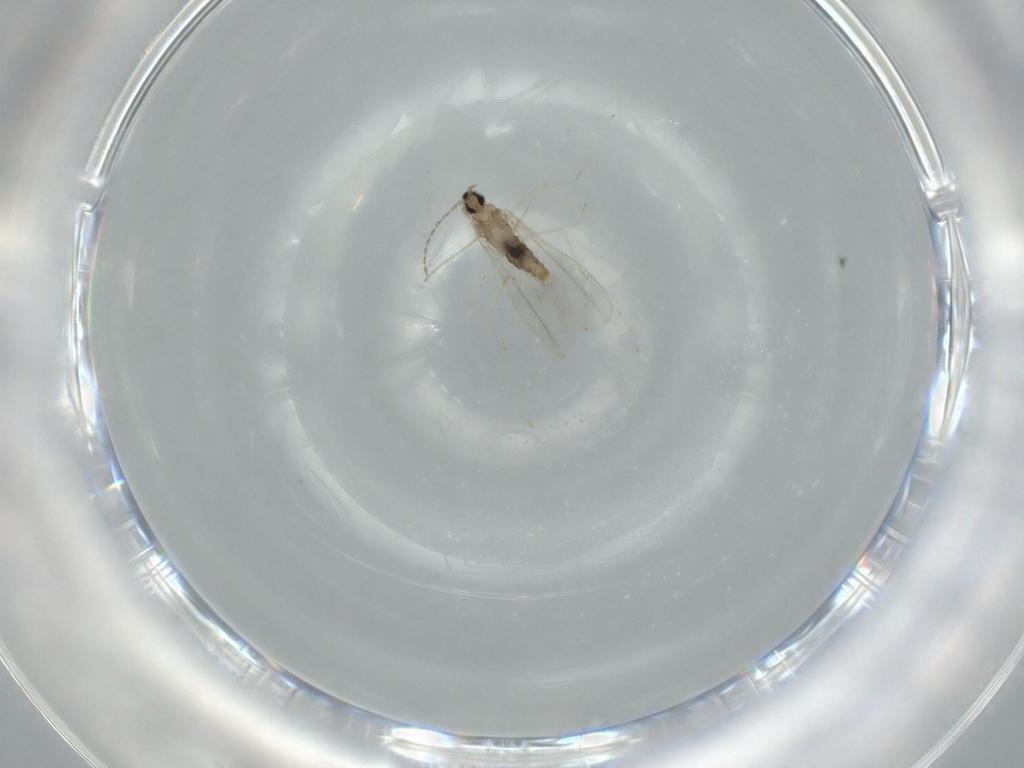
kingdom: Animalia
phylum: Arthropoda
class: Insecta
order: Diptera
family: Cecidomyiidae
